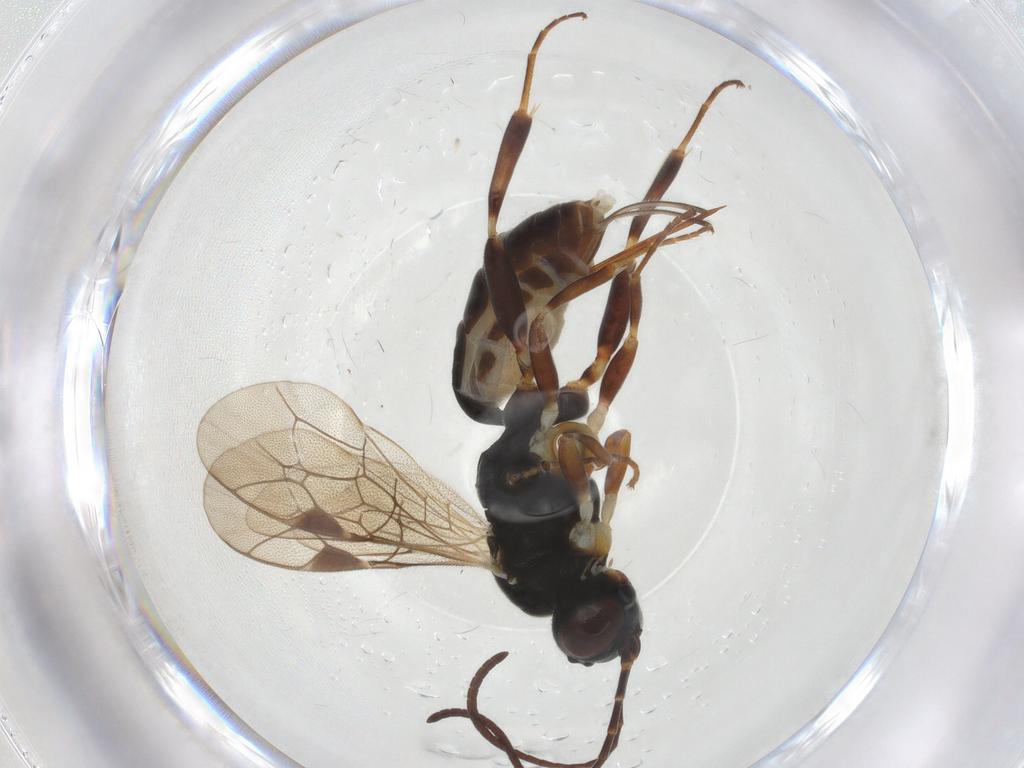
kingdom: Animalia
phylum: Arthropoda
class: Insecta
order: Hymenoptera
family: Ichneumonidae
